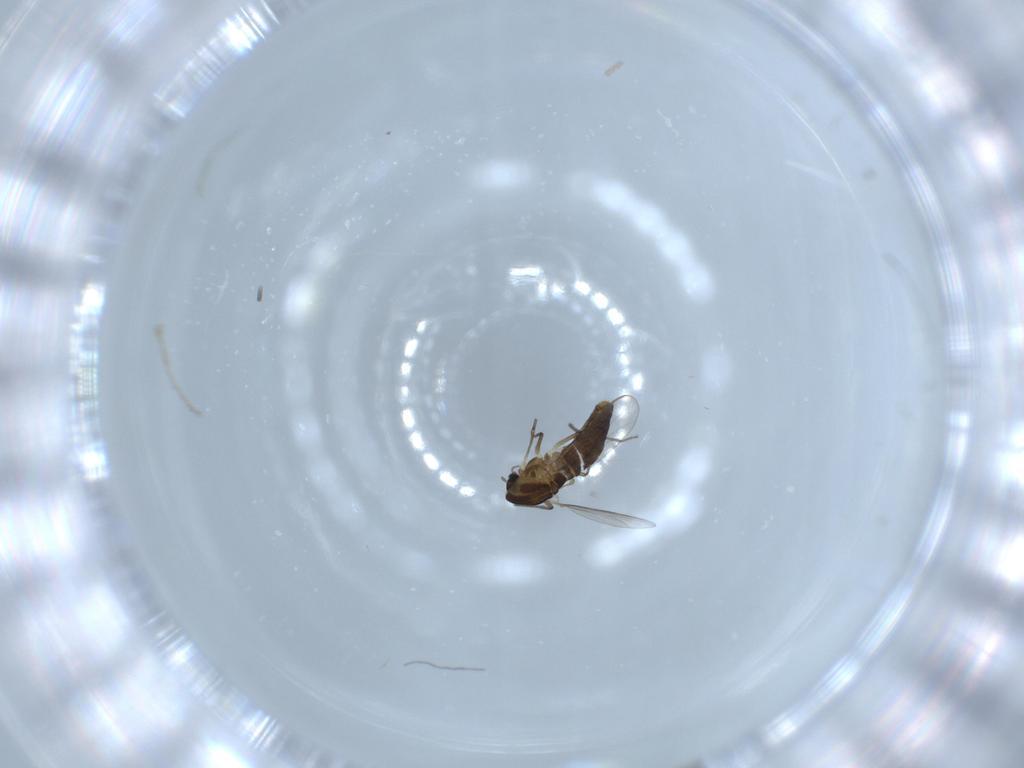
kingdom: Animalia
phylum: Arthropoda
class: Insecta
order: Diptera
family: Chironomidae
